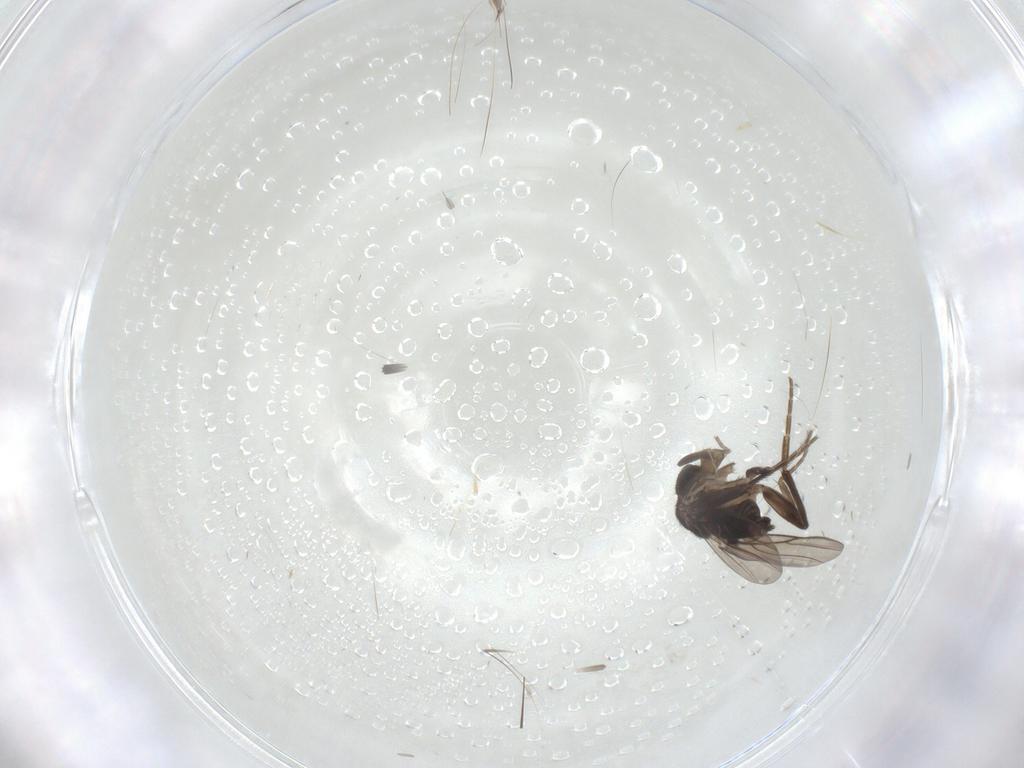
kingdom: Animalia
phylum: Arthropoda
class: Insecta
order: Diptera
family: Phoridae
